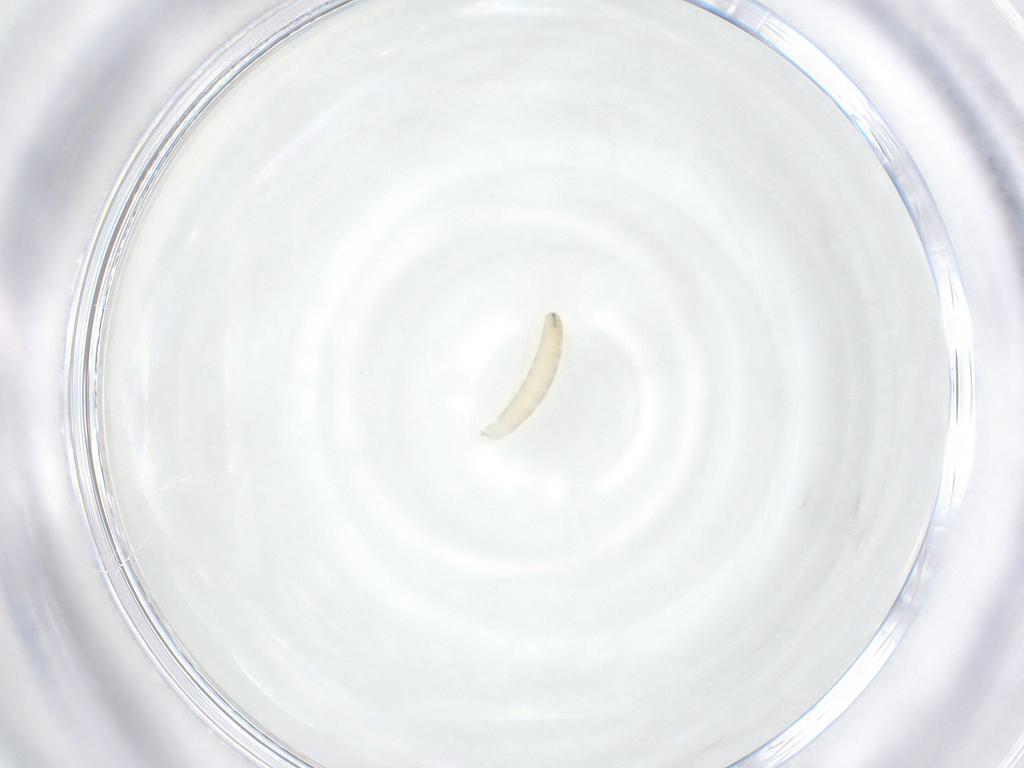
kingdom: Animalia
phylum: Arthropoda
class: Insecta
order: Diptera
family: Tachinidae
